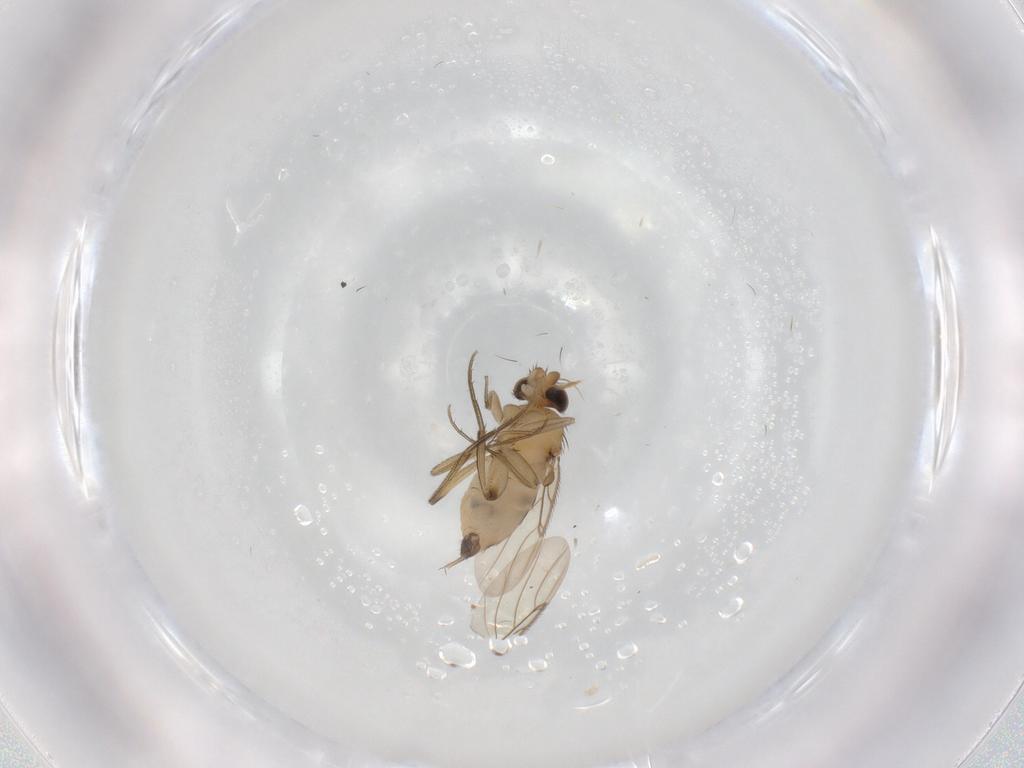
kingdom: Animalia
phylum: Arthropoda
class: Insecta
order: Diptera
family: Phoridae
